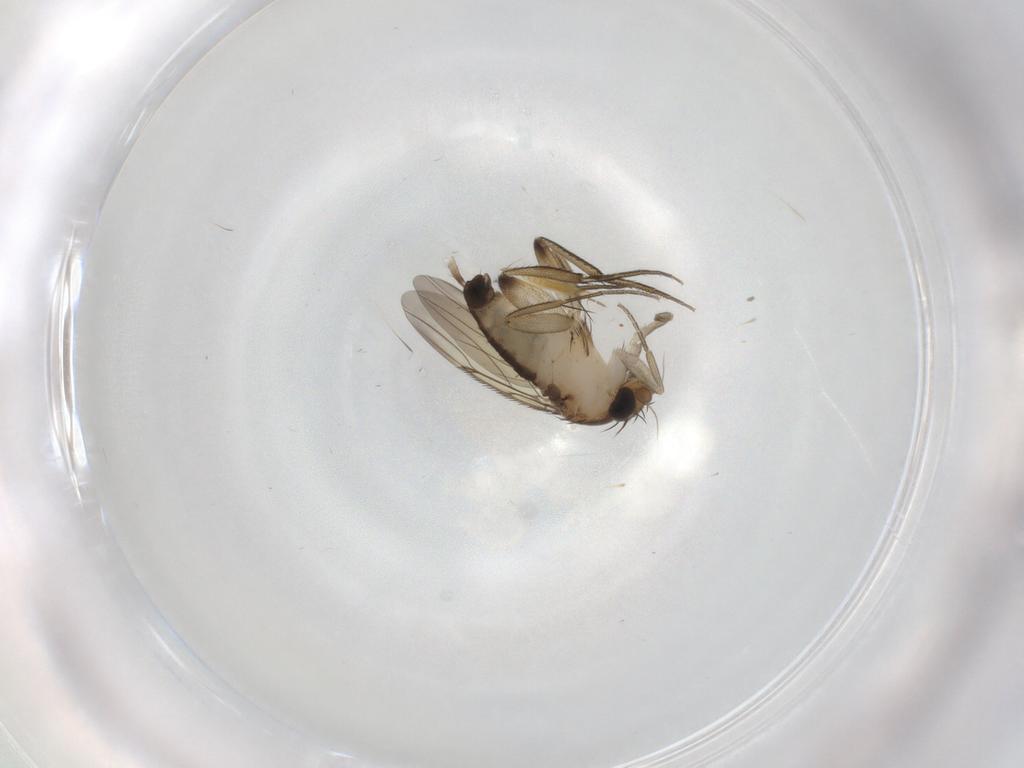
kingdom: Animalia
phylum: Arthropoda
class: Insecta
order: Diptera
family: Phoridae
